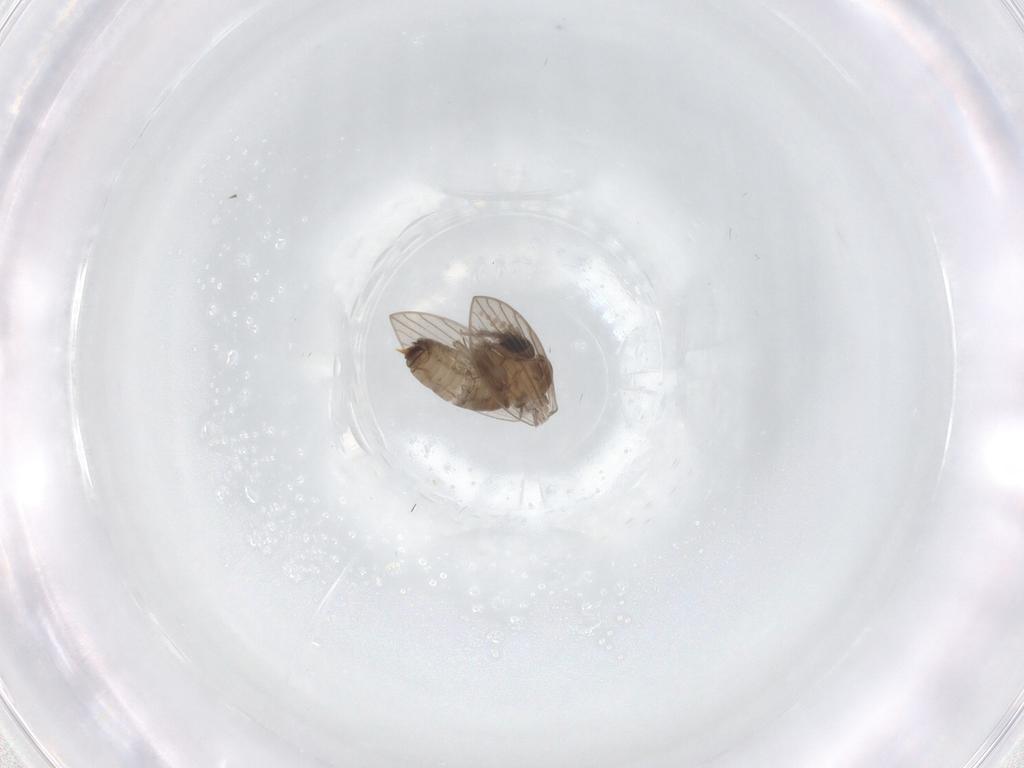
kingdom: Animalia
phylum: Arthropoda
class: Insecta
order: Diptera
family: Psychodidae
